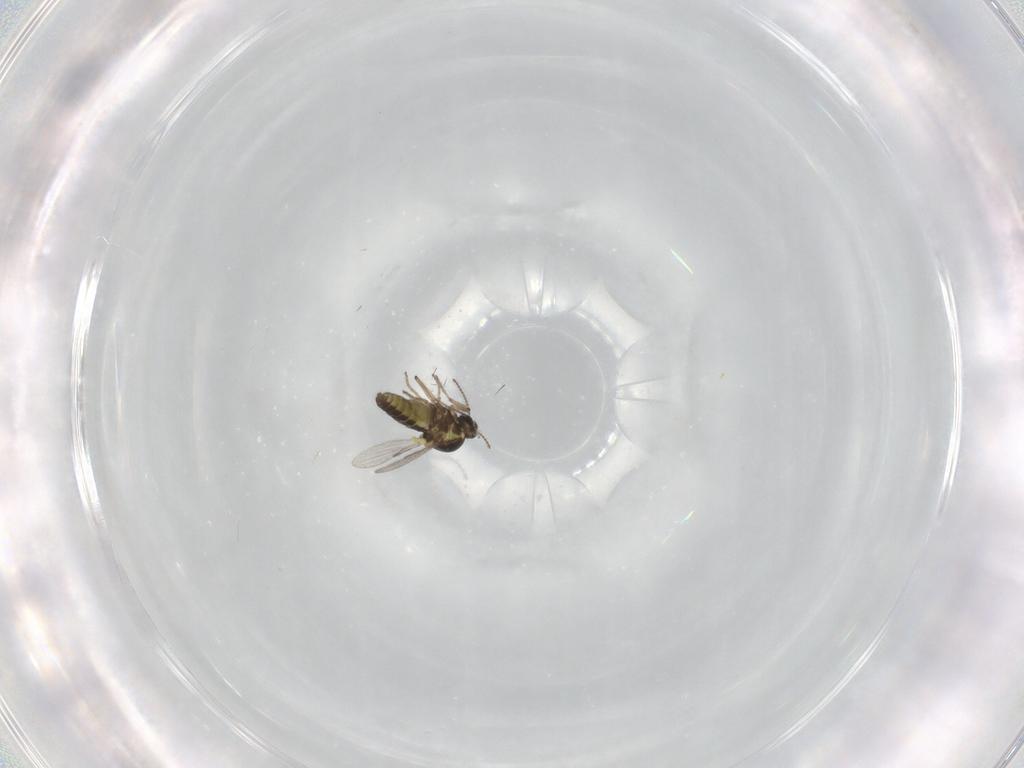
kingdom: Animalia
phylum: Arthropoda
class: Insecta
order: Diptera
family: Ceratopogonidae
